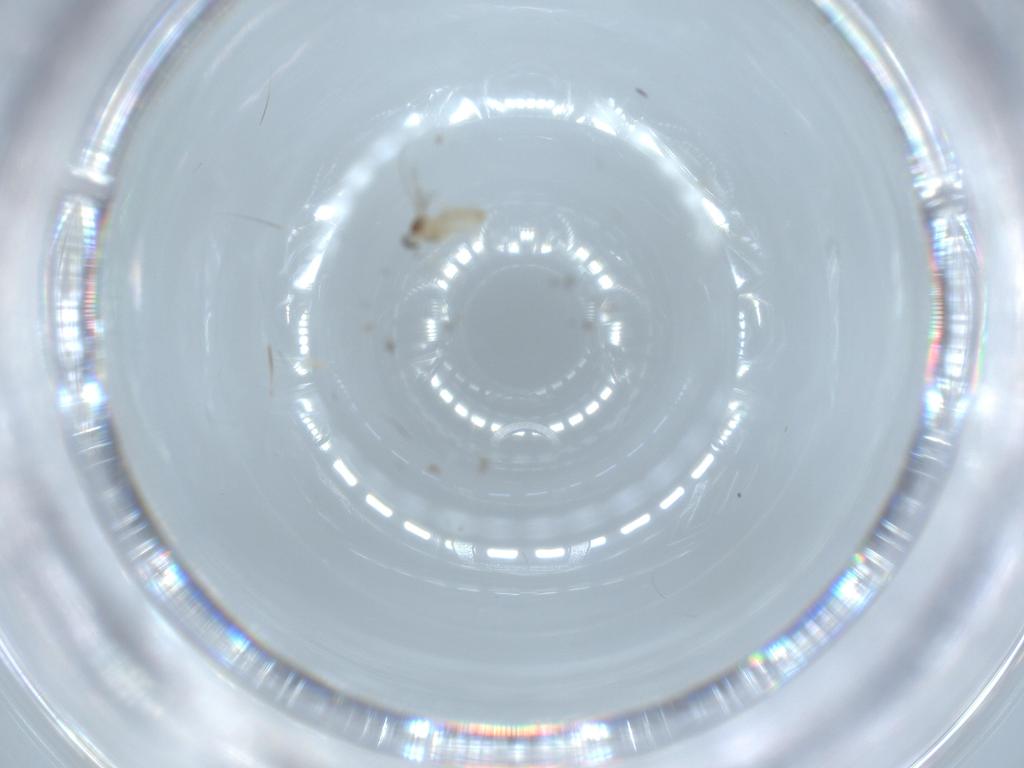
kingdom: Animalia
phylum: Arthropoda
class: Insecta
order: Diptera
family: Cecidomyiidae
